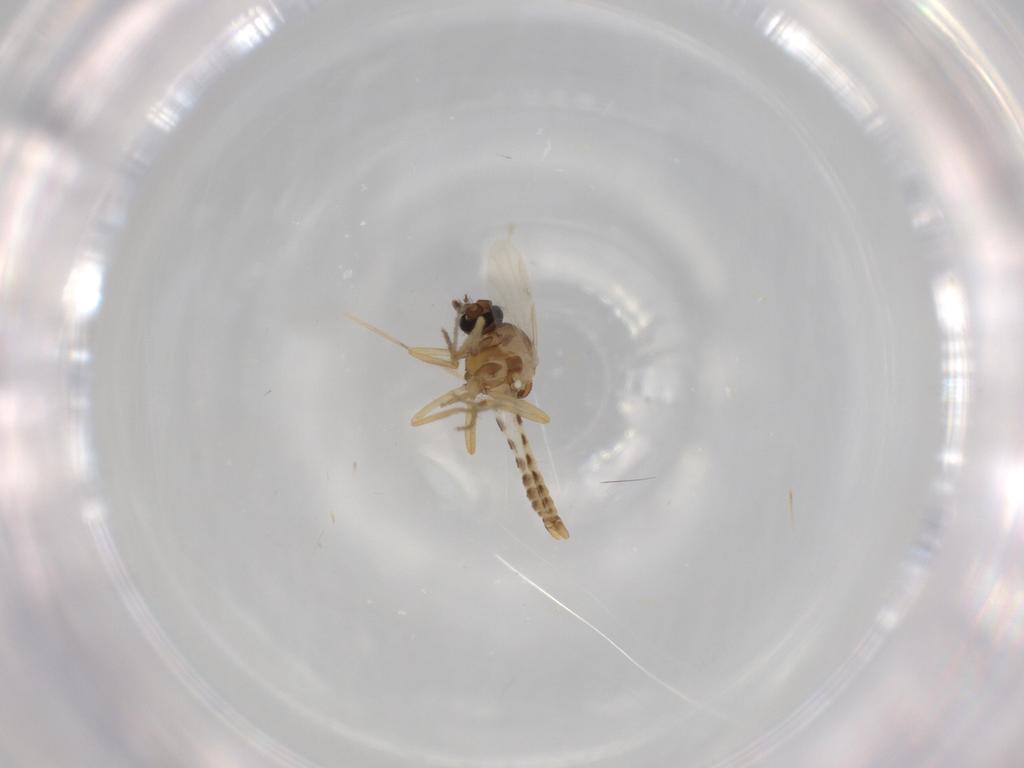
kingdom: Animalia
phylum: Arthropoda
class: Insecta
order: Diptera
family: Ceratopogonidae
